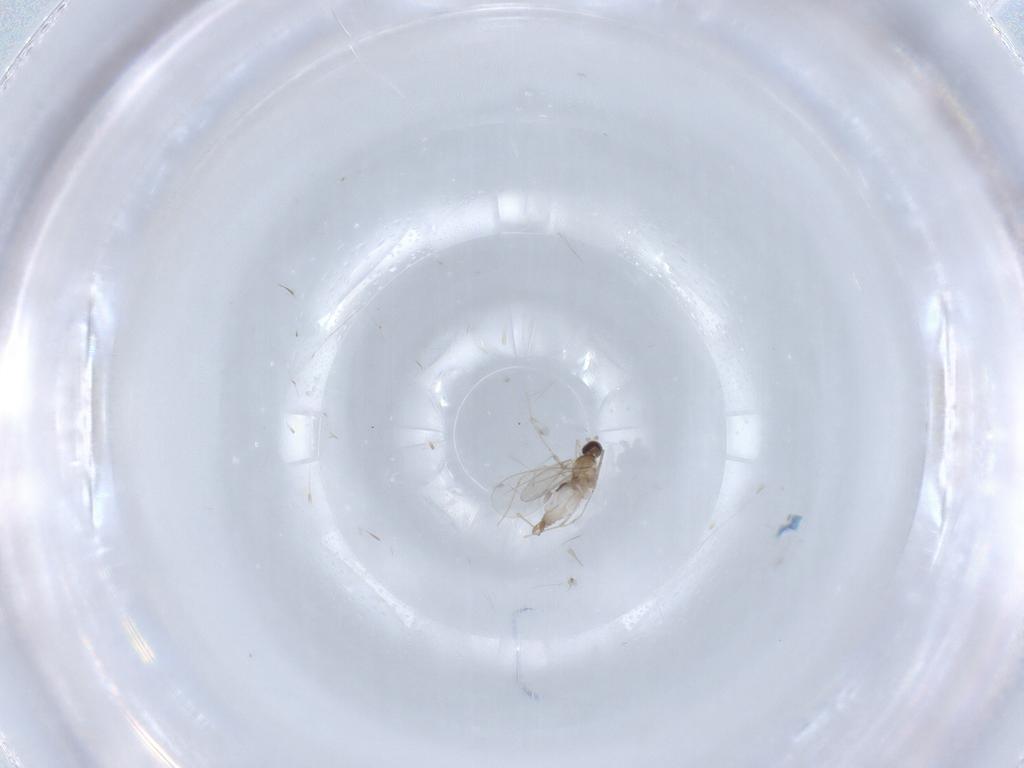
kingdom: Animalia
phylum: Arthropoda
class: Insecta
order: Diptera
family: Cecidomyiidae
